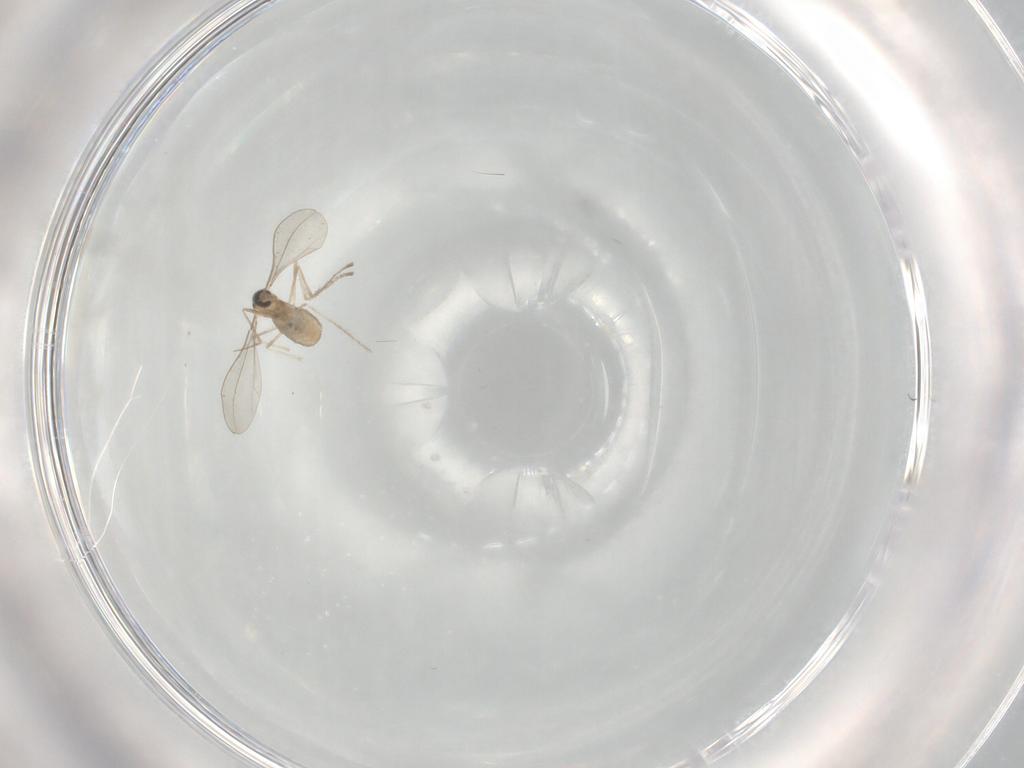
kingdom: Animalia
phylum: Arthropoda
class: Insecta
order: Diptera
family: Cecidomyiidae
